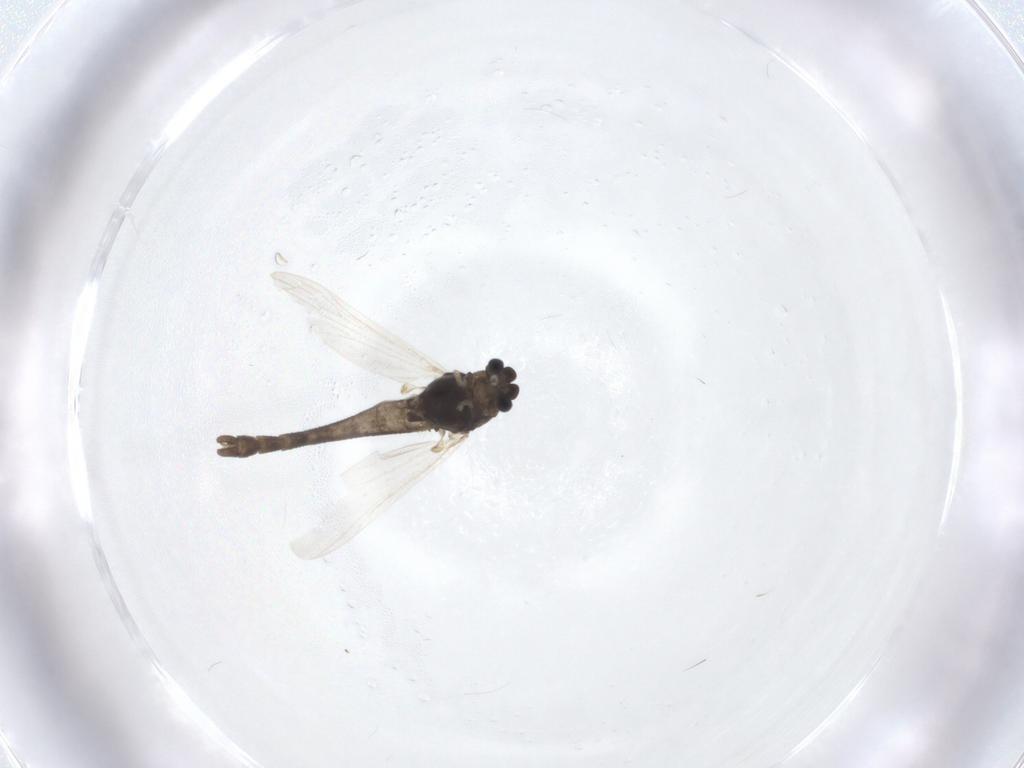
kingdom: Animalia
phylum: Arthropoda
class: Insecta
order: Diptera
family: Chironomidae
